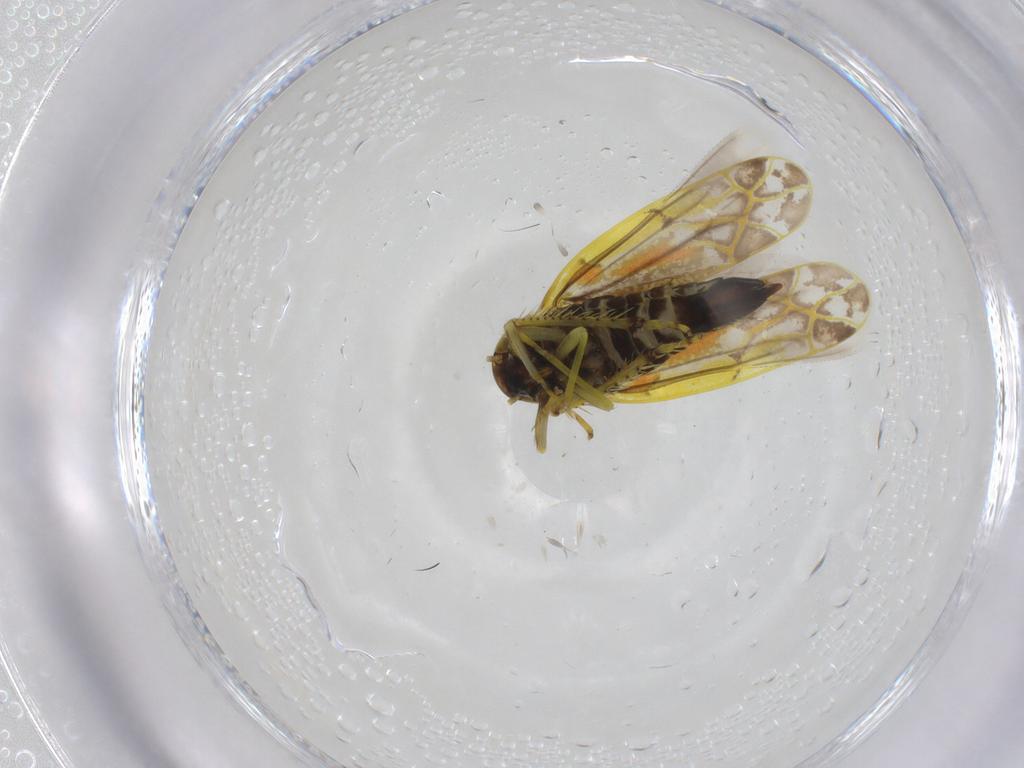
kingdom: Animalia
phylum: Arthropoda
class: Insecta
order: Hemiptera
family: Cicadellidae
